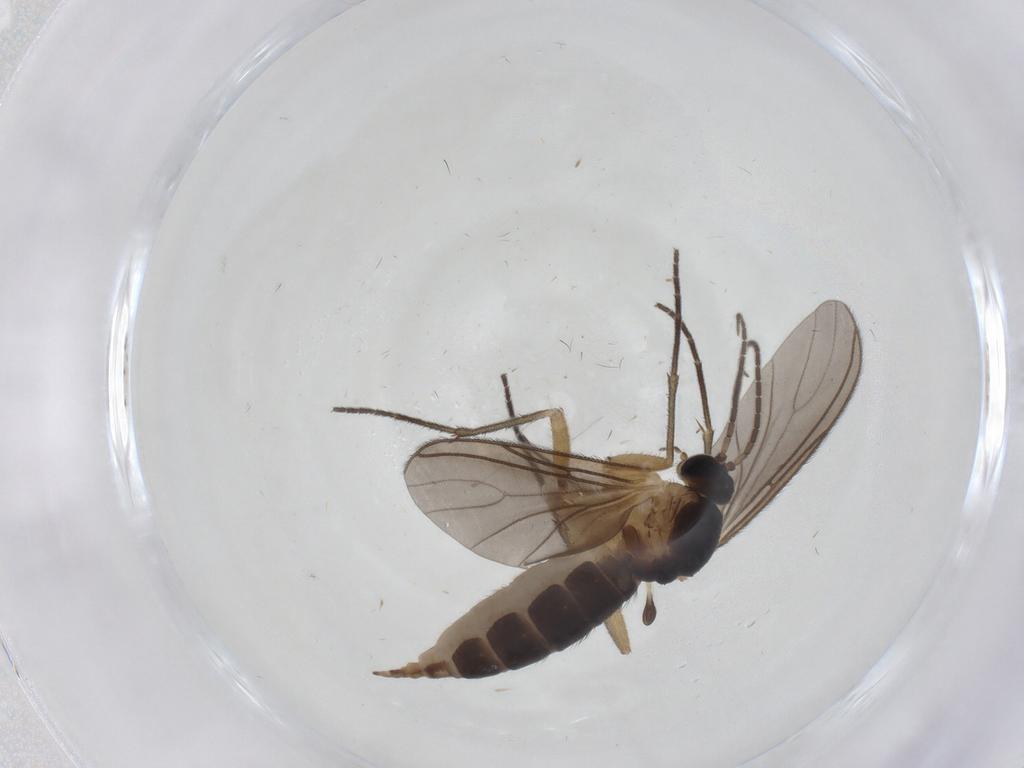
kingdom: Animalia
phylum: Arthropoda
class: Insecta
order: Diptera
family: Sciaridae
